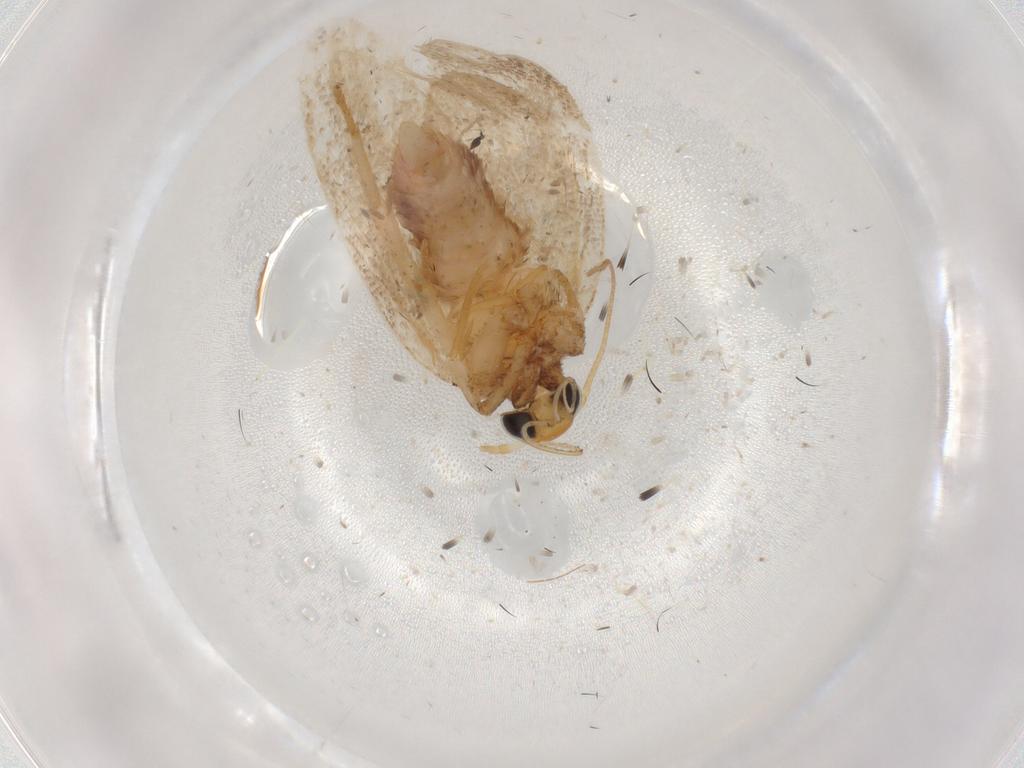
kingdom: Animalia
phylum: Arthropoda
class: Insecta
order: Lepidoptera
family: Gelechiidae
